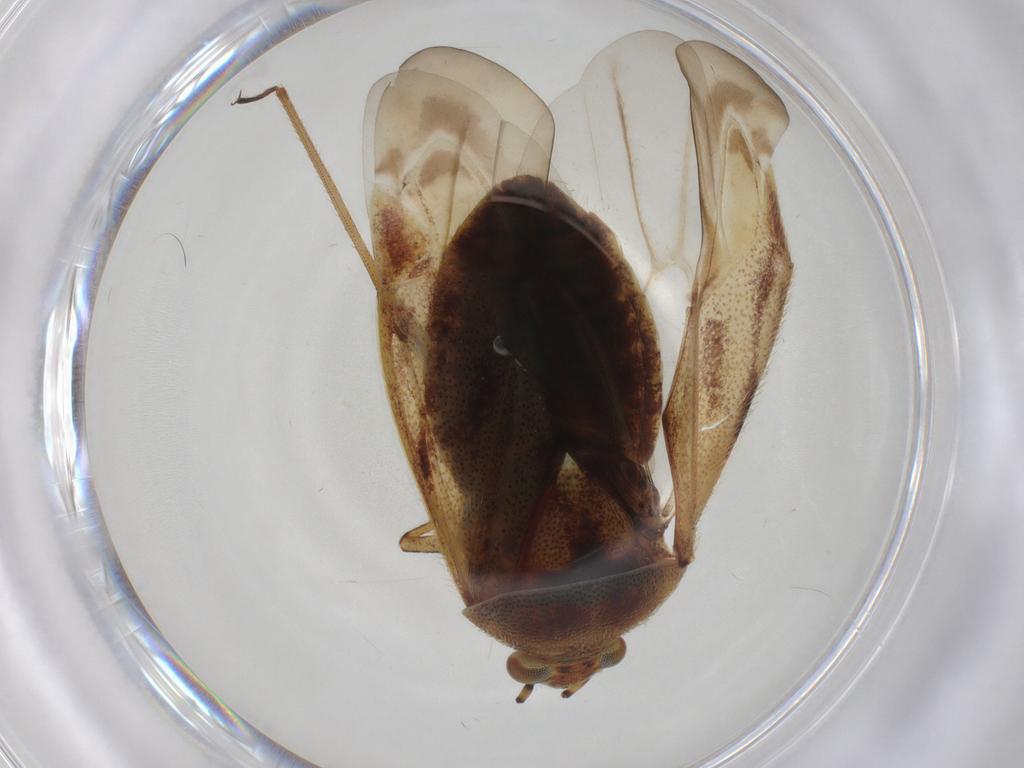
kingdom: Animalia
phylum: Arthropoda
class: Insecta
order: Hemiptera
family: Miridae
